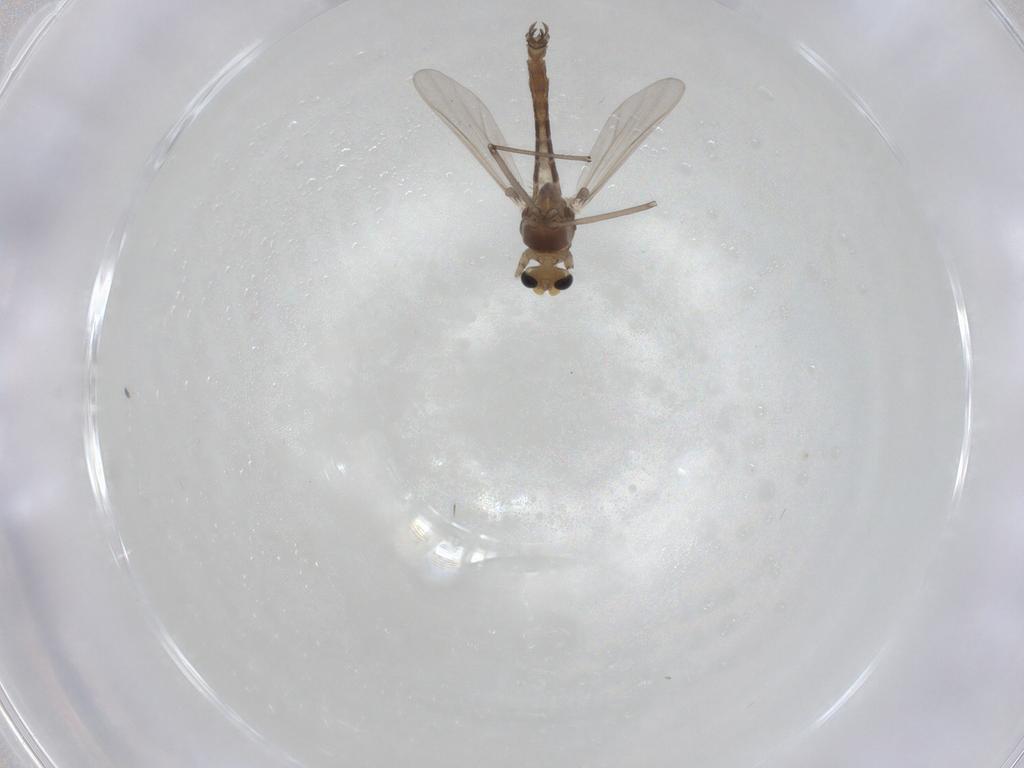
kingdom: Animalia
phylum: Arthropoda
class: Insecta
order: Diptera
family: Chironomidae
